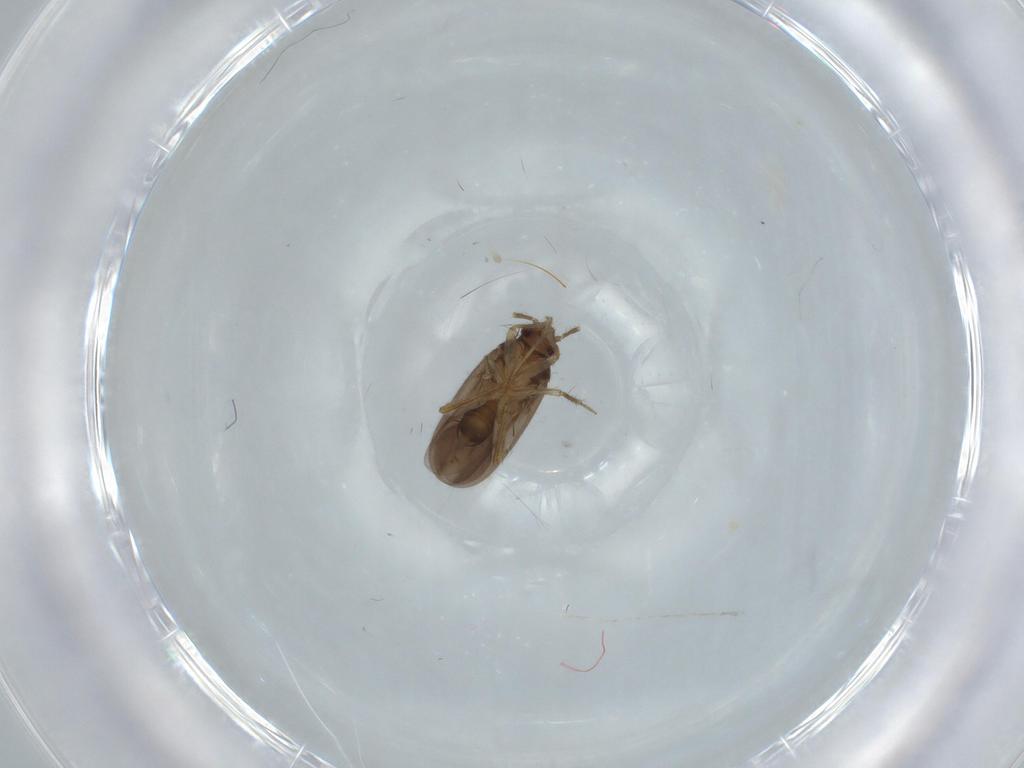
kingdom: Animalia
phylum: Arthropoda
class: Insecta
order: Hemiptera
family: Ceratocombidae
